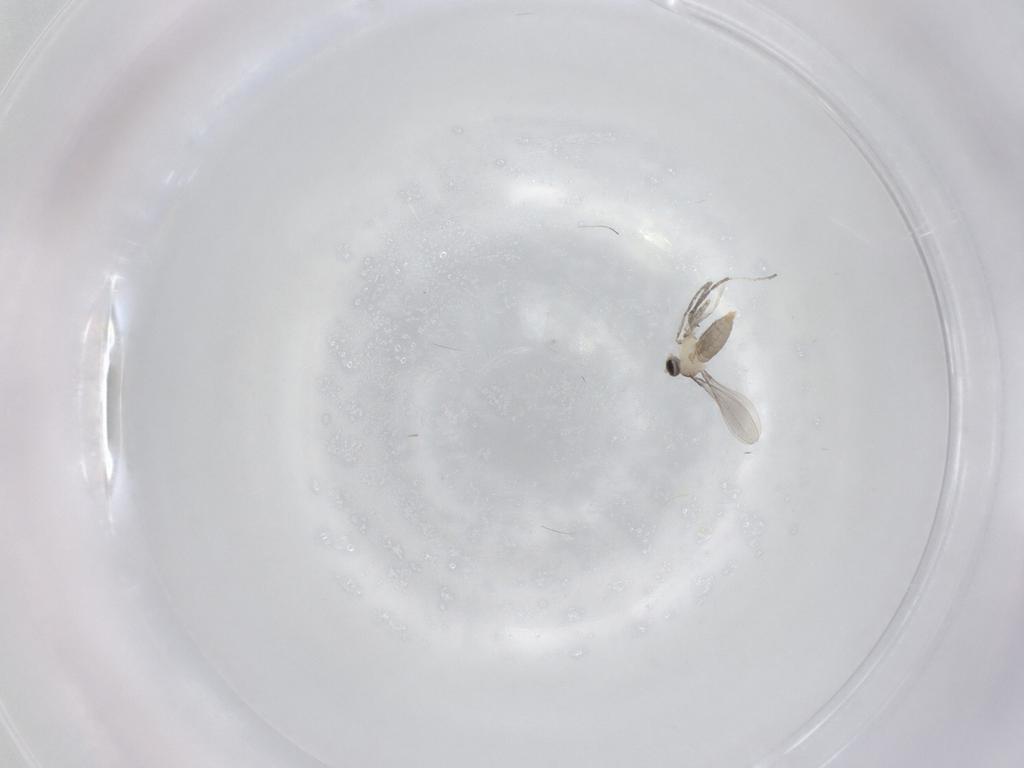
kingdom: Animalia
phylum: Arthropoda
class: Insecta
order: Diptera
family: Cecidomyiidae
